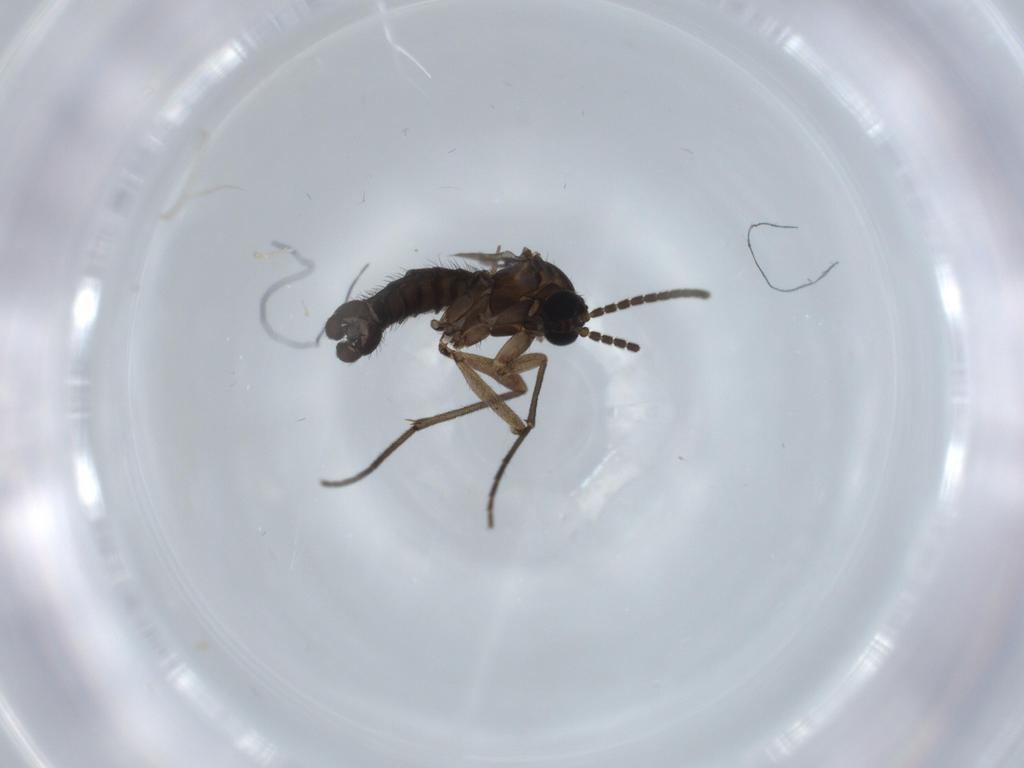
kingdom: Animalia
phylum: Arthropoda
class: Insecta
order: Diptera
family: Sciaridae
